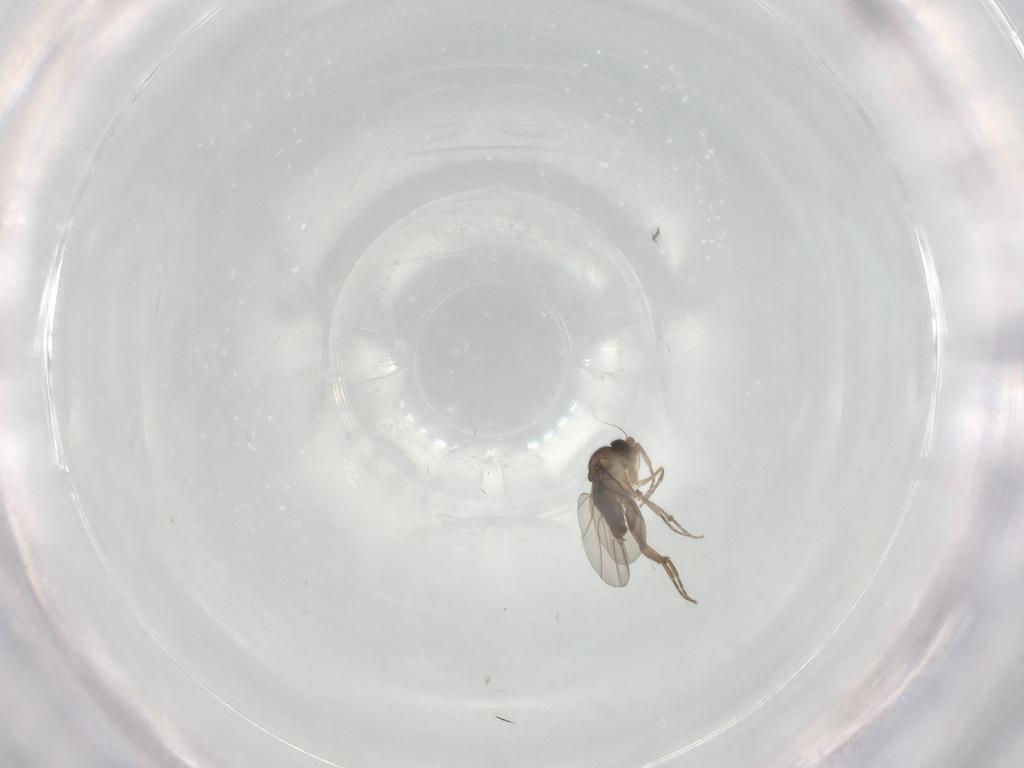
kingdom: Animalia
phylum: Arthropoda
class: Insecta
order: Diptera
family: Phoridae
